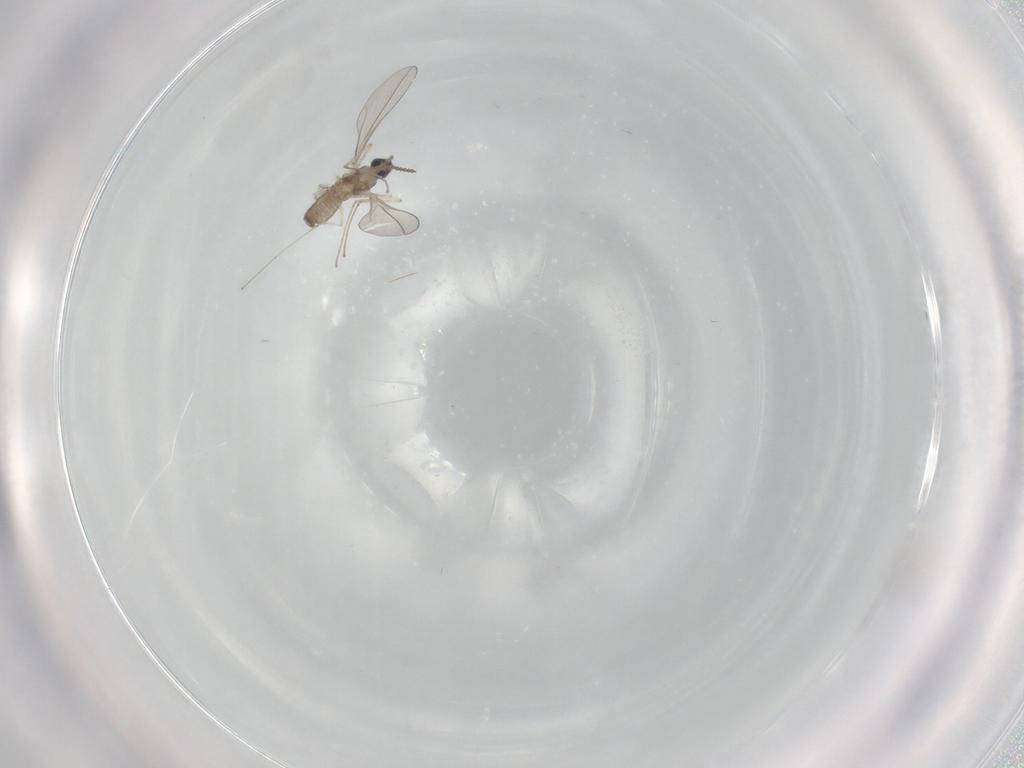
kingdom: Animalia
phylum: Arthropoda
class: Insecta
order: Diptera
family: Cecidomyiidae
